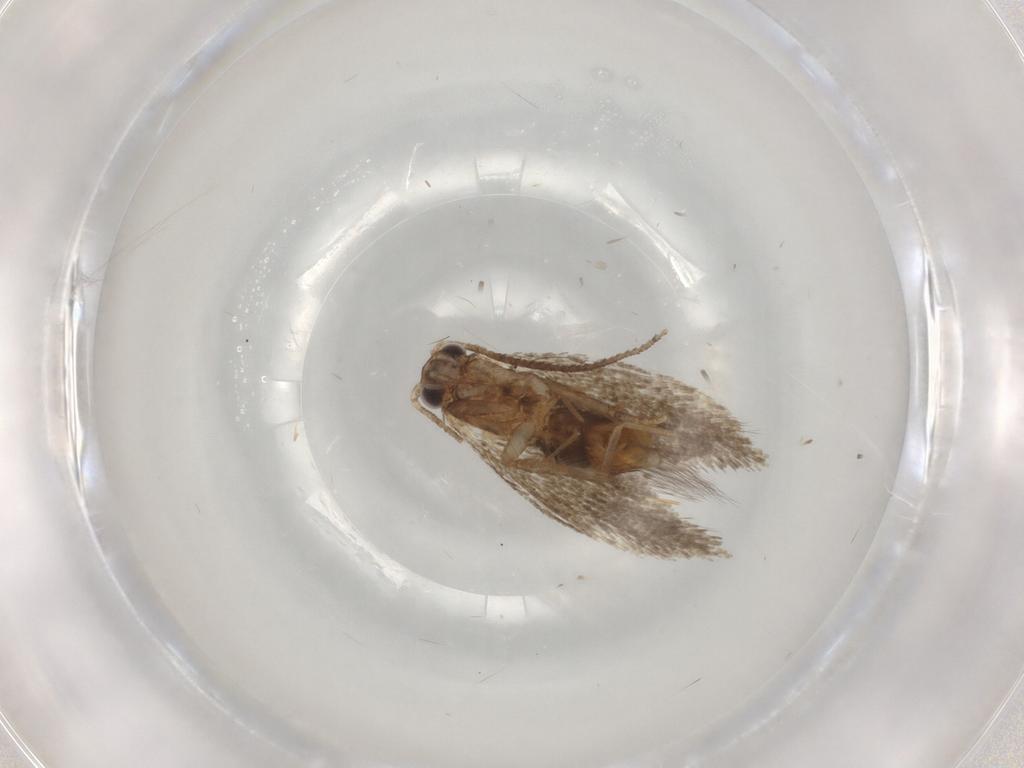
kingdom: Animalia
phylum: Arthropoda
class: Insecta
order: Lepidoptera
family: Tineidae
